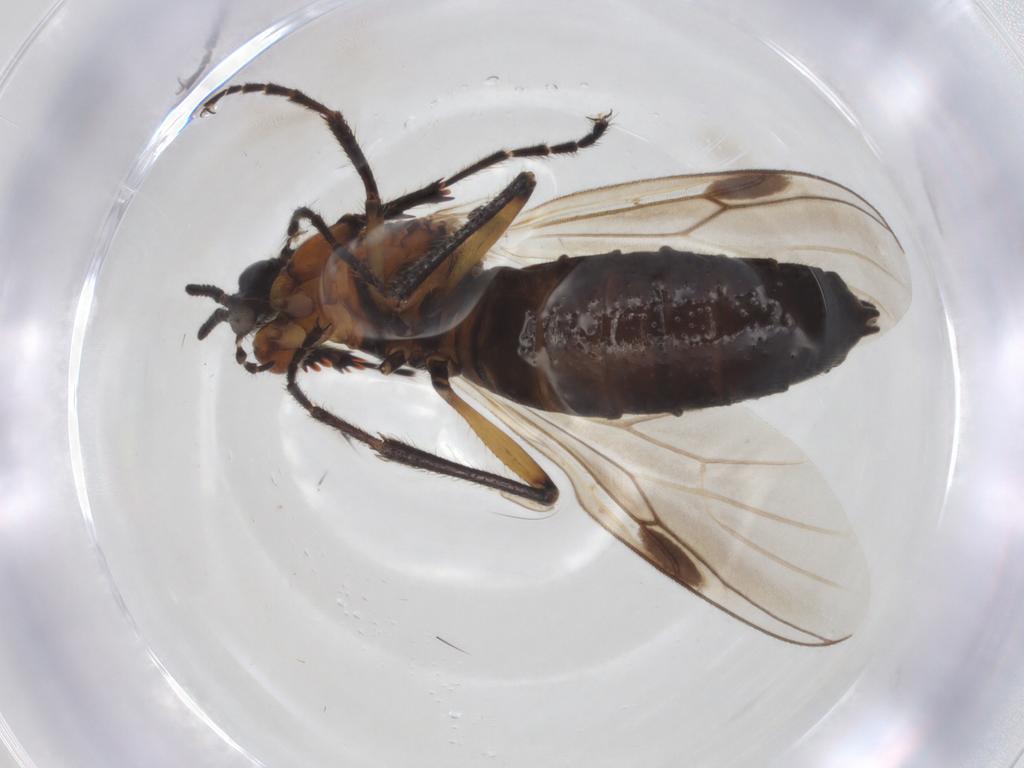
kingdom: Animalia
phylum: Arthropoda
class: Insecta
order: Diptera
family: Bibionidae
